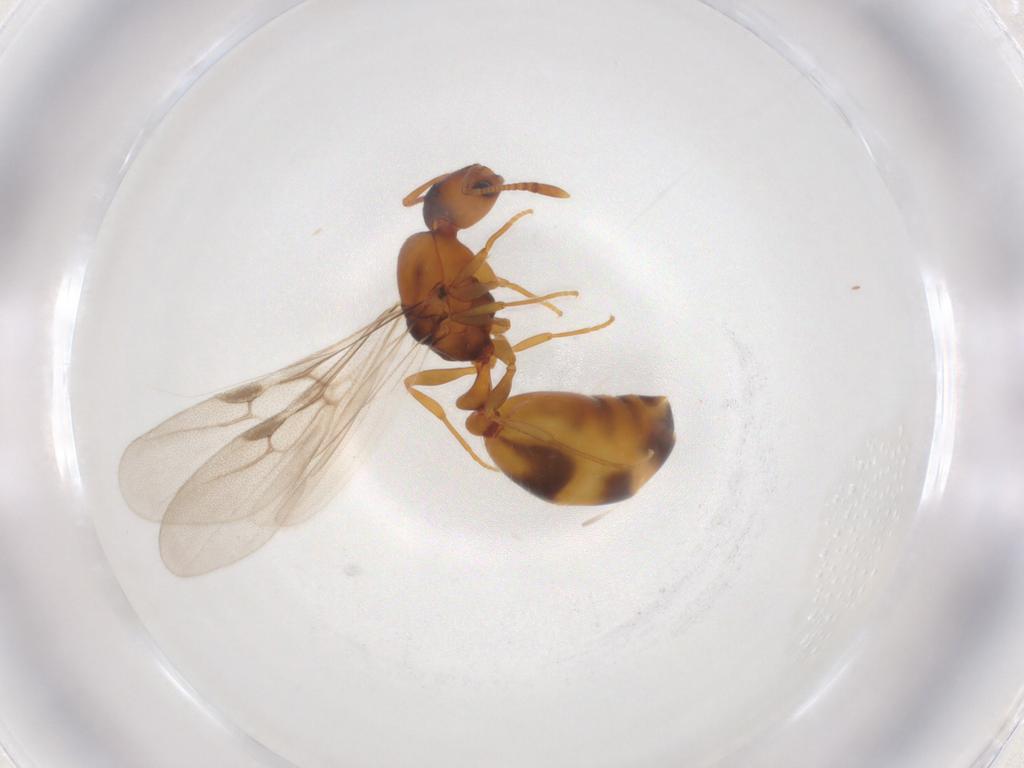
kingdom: Animalia
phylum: Arthropoda
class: Insecta
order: Hymenoptera
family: Formicidae
